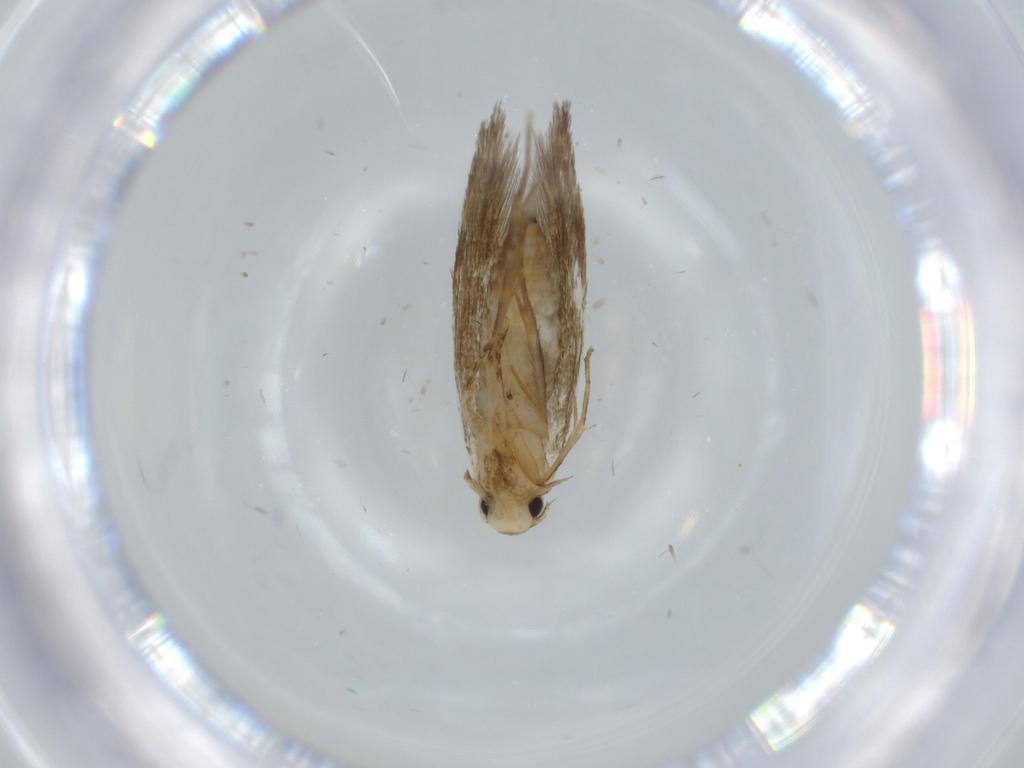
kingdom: Animalia
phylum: Arthropoda
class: Insecta
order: Lepidoptera
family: Tineidae
